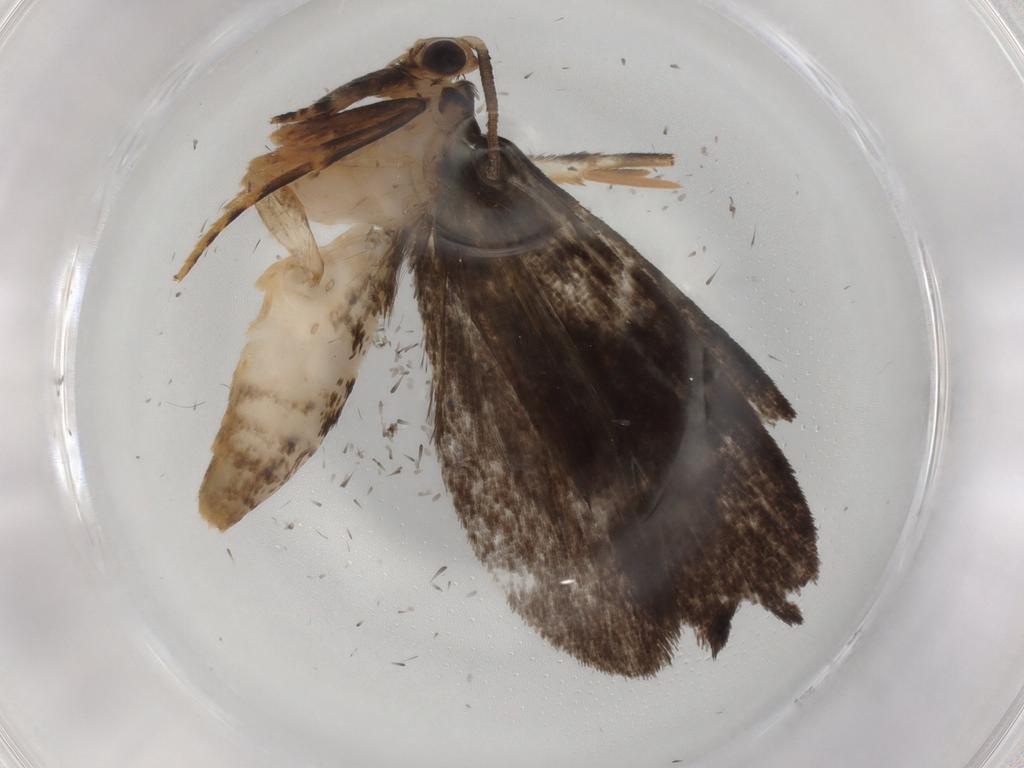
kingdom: Animalia
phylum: Arthropoda
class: Insecta
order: Lepidoptera
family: Tineidae
